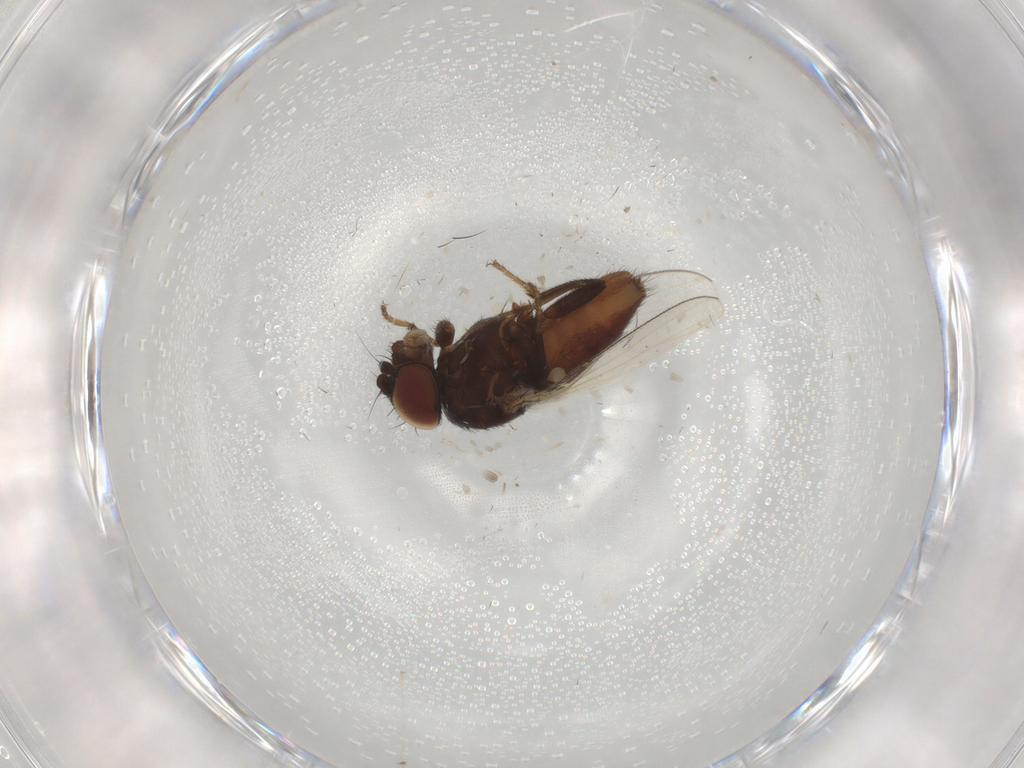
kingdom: Animalia
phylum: Arthropoda
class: Insecta
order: Diptera
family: Milichiidae
